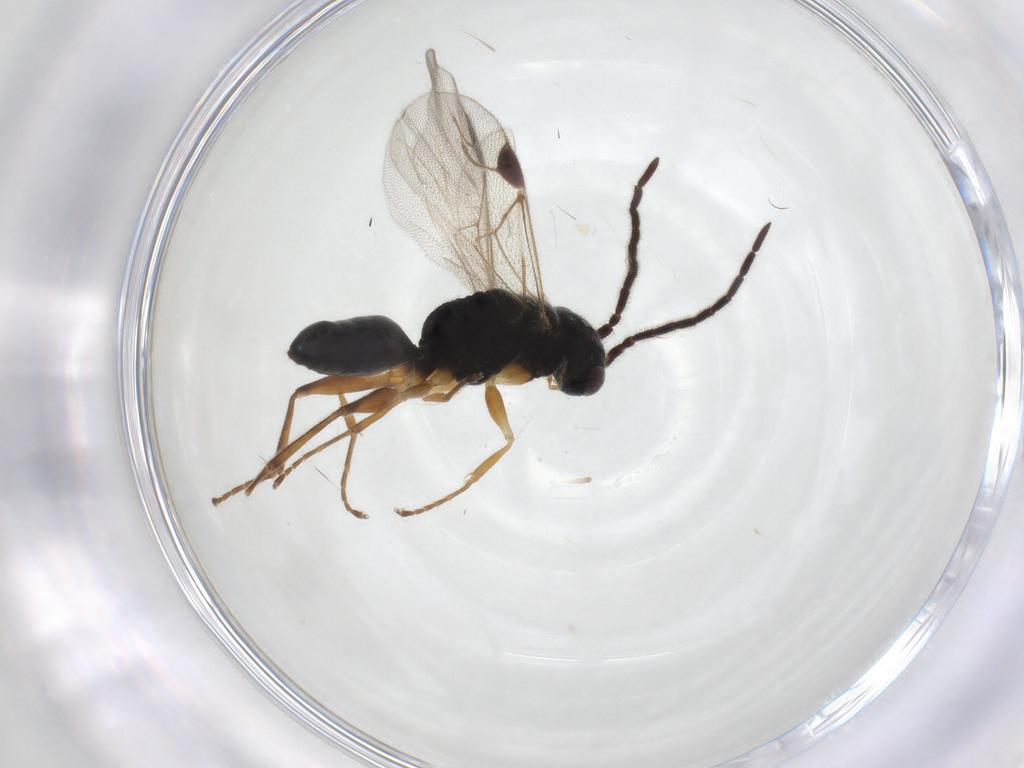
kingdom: Animalia
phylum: Arthropoda
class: Insecta
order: Hymenoptera
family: Dryinidae
